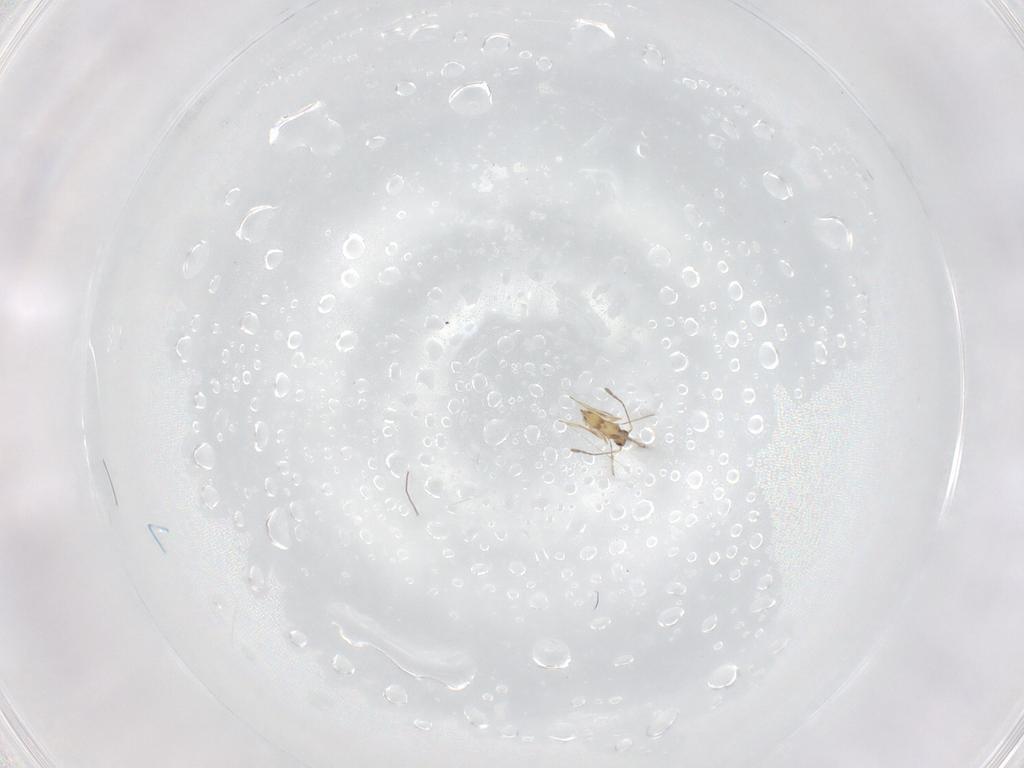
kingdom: Animalia
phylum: Arthropoda
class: Insecta
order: Hymenoptera
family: Mymaridae
